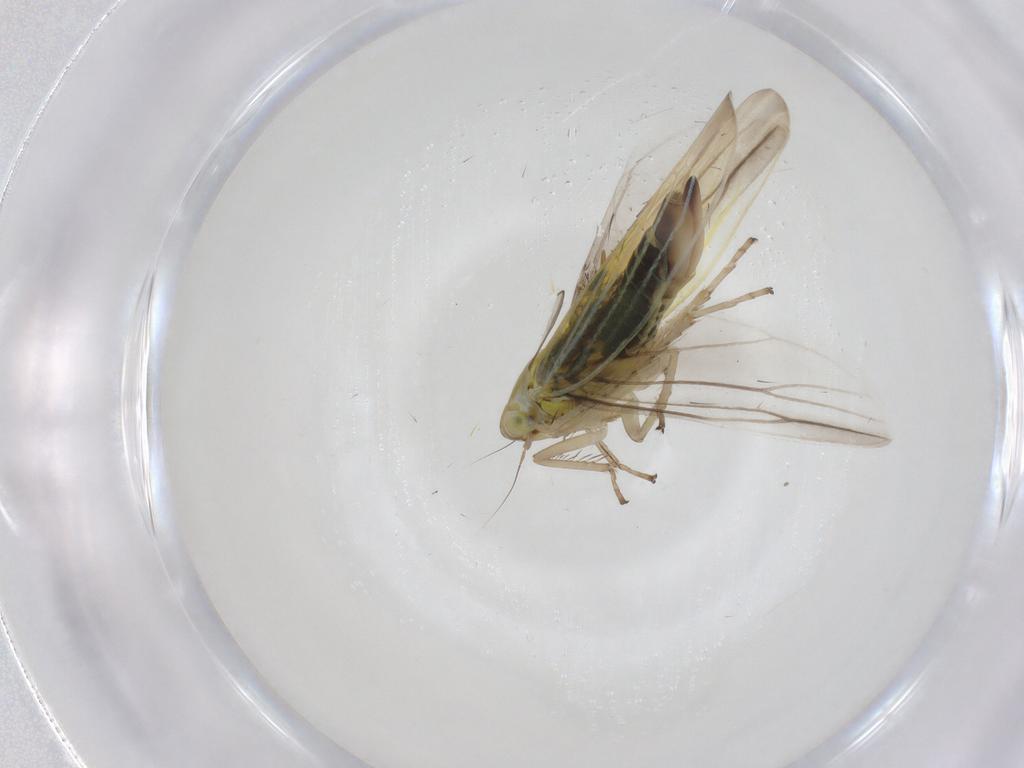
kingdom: Animalia
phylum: Arthropoda
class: Insecta
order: Hemiptera
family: Cicadellidae
